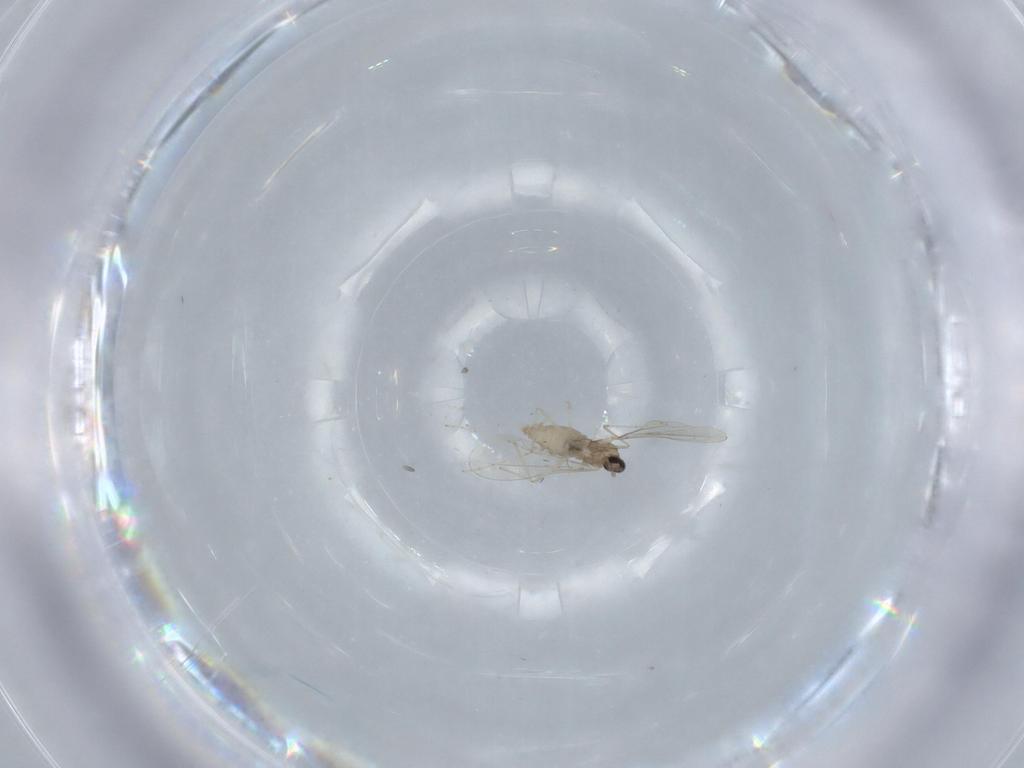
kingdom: Animalia
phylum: Arthropoda
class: Insecta
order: Diptera
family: Cecidomyiidae
